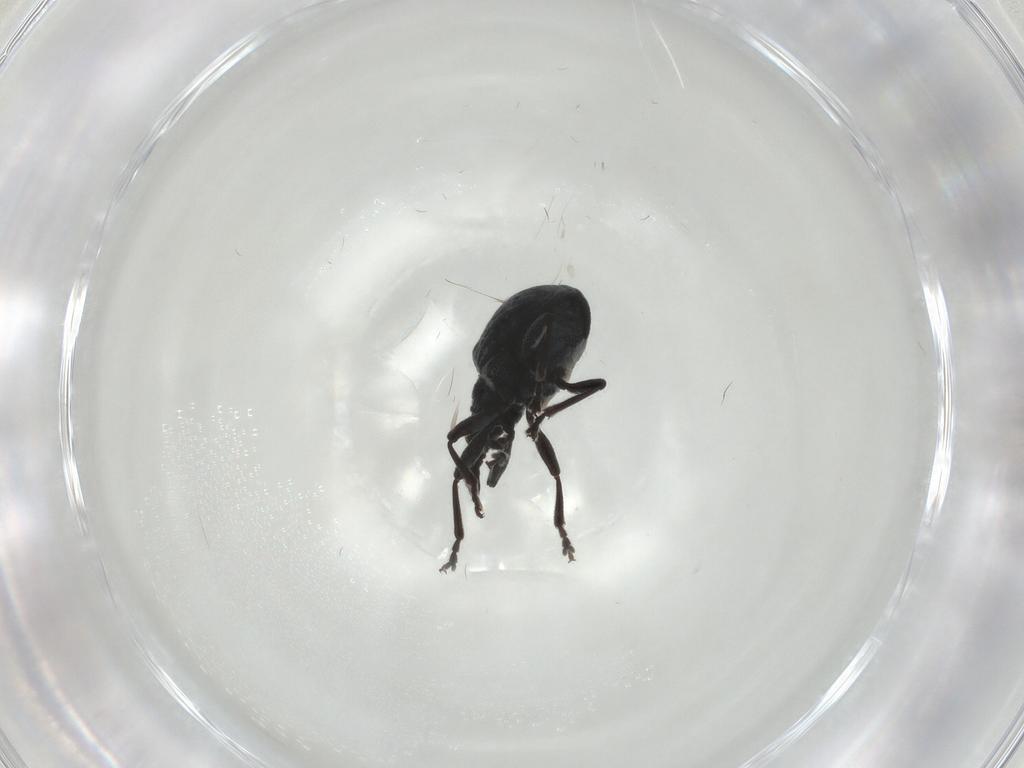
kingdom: Animalia
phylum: Arthropoda
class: Insecta
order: Coleoptera
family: Brentidae
